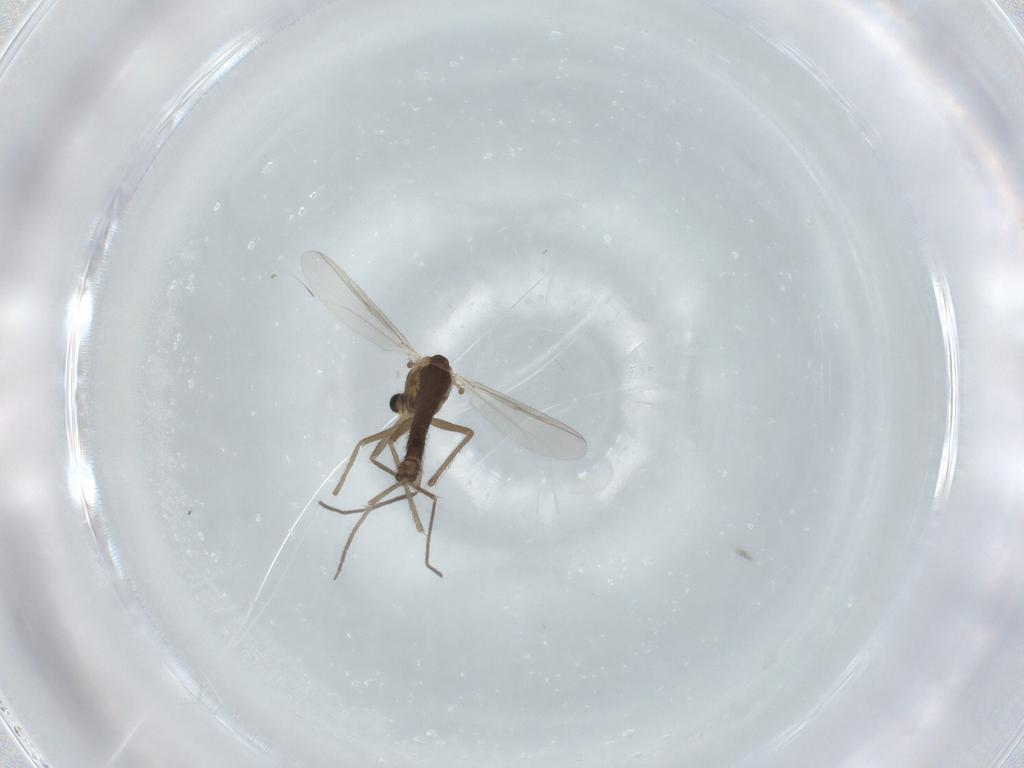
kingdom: Animalia
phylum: Arthropoda
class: Insecta
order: Diptera
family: Chironomidae
